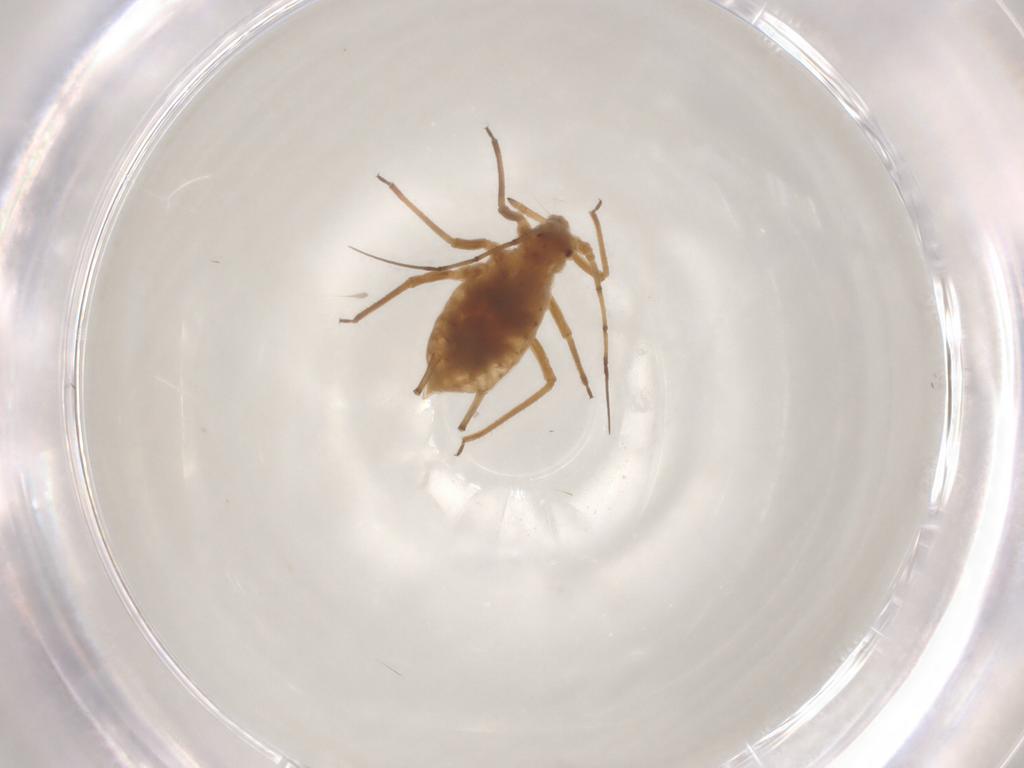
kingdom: Animalia
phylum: Arthropoda
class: Insecta
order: Hemiptera
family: Aphididae
